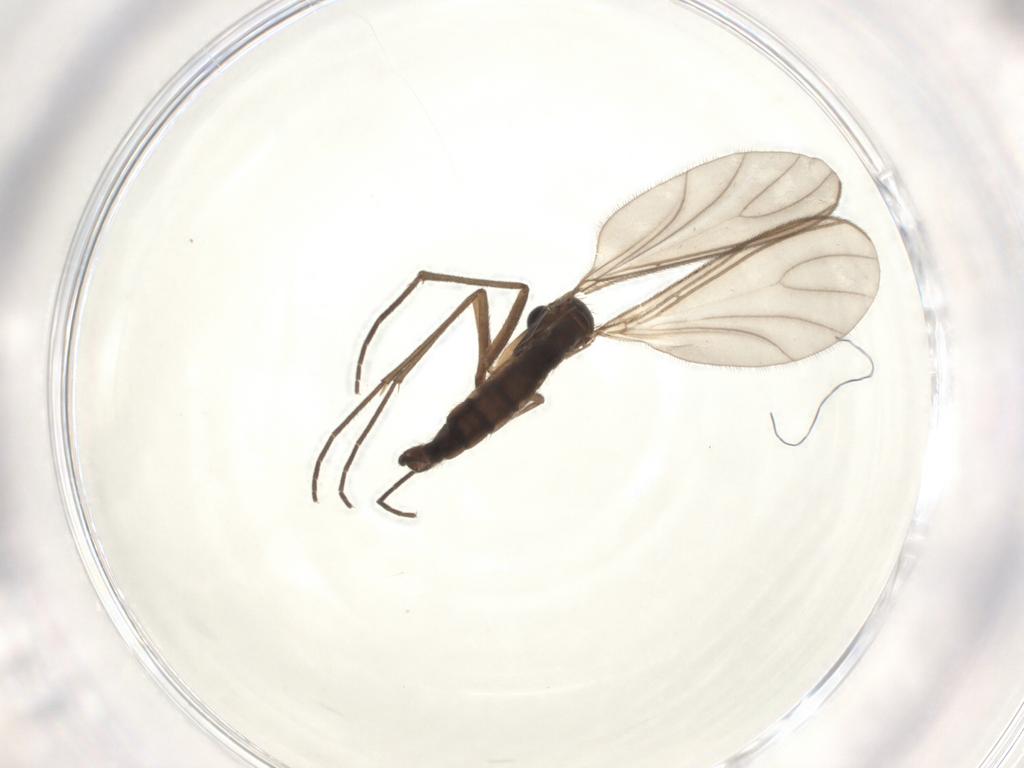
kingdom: Animalia
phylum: Arthropoda
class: Insecta
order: Diptera
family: Sciaridae
